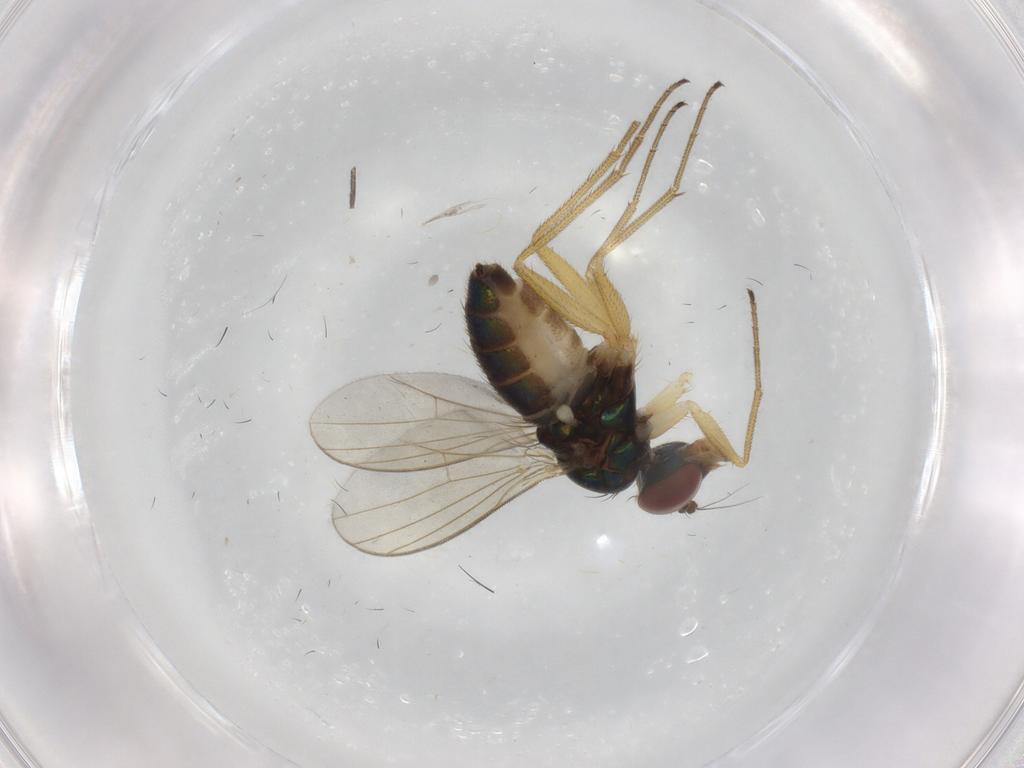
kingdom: Animalia
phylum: Arthropoda
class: Insecta
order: Diptera
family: Dolichopodidae
